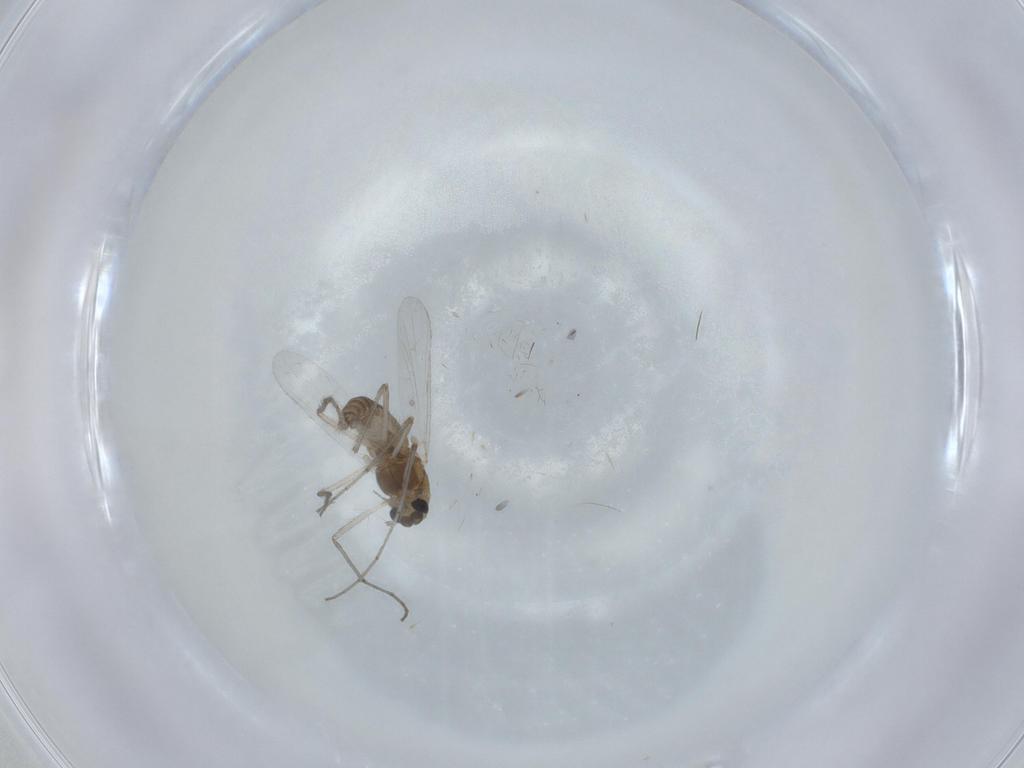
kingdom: Animalia
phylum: Arthropoda
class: Insecta
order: Diptera
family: Chironomidae
